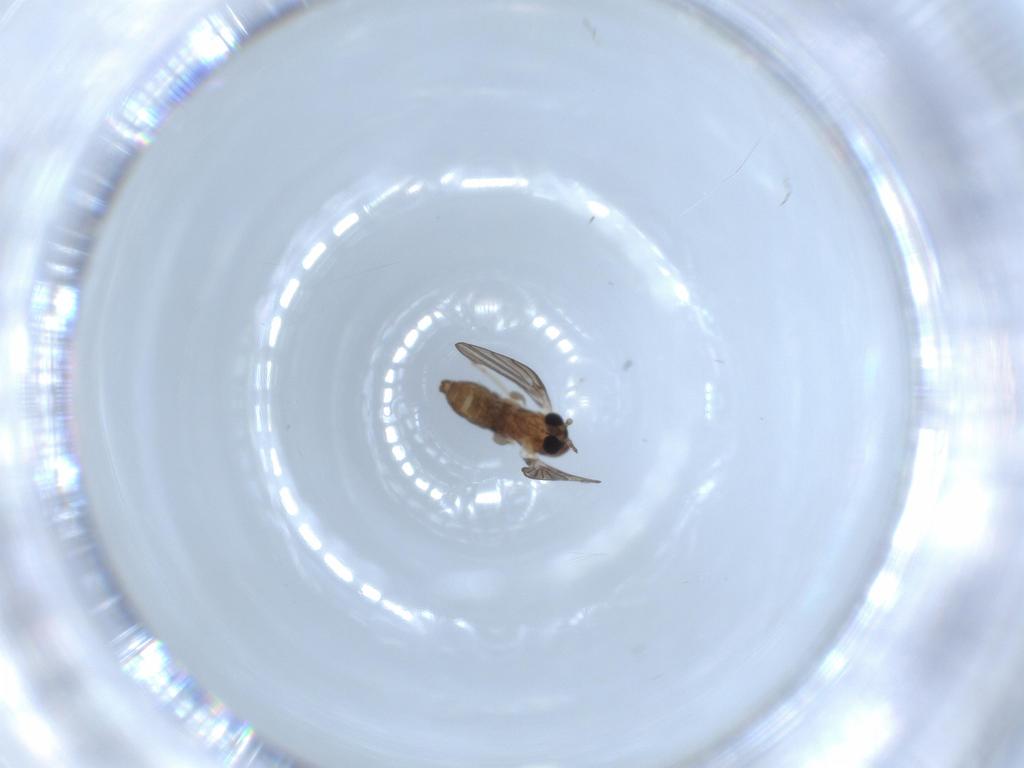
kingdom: Animalia
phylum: Arthropoda
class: Insecta
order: Diptera
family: Psychodidae
